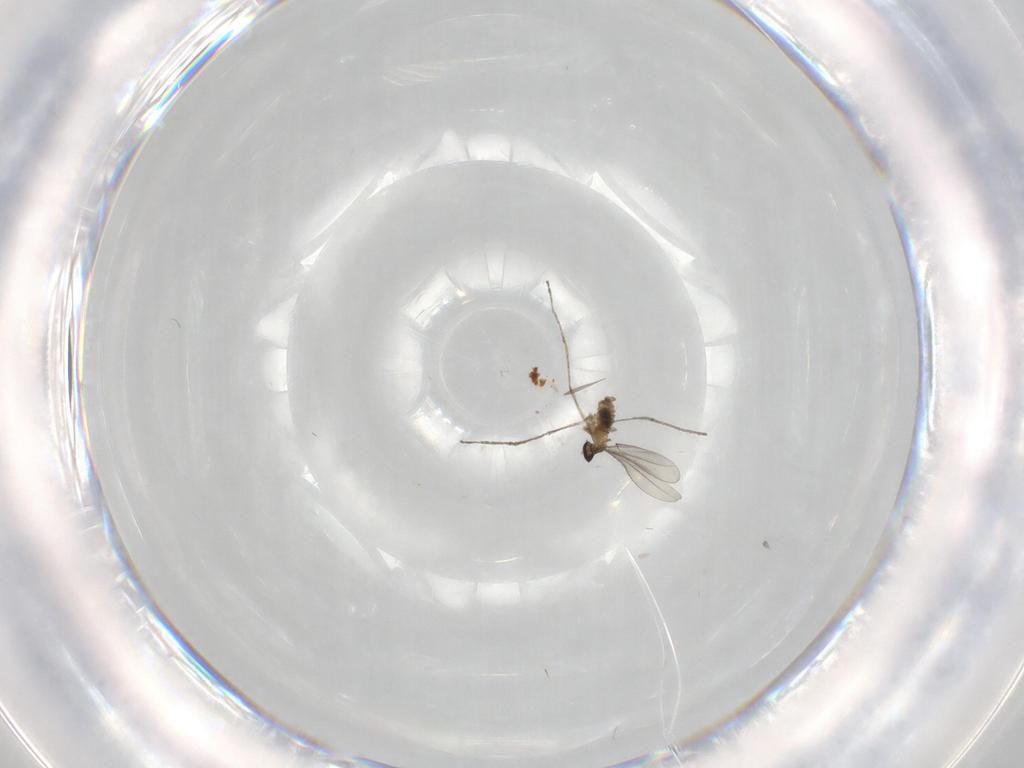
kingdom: Animalia
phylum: Arthropoda
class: Insecta
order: Diptera
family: Cecidomyiidae
